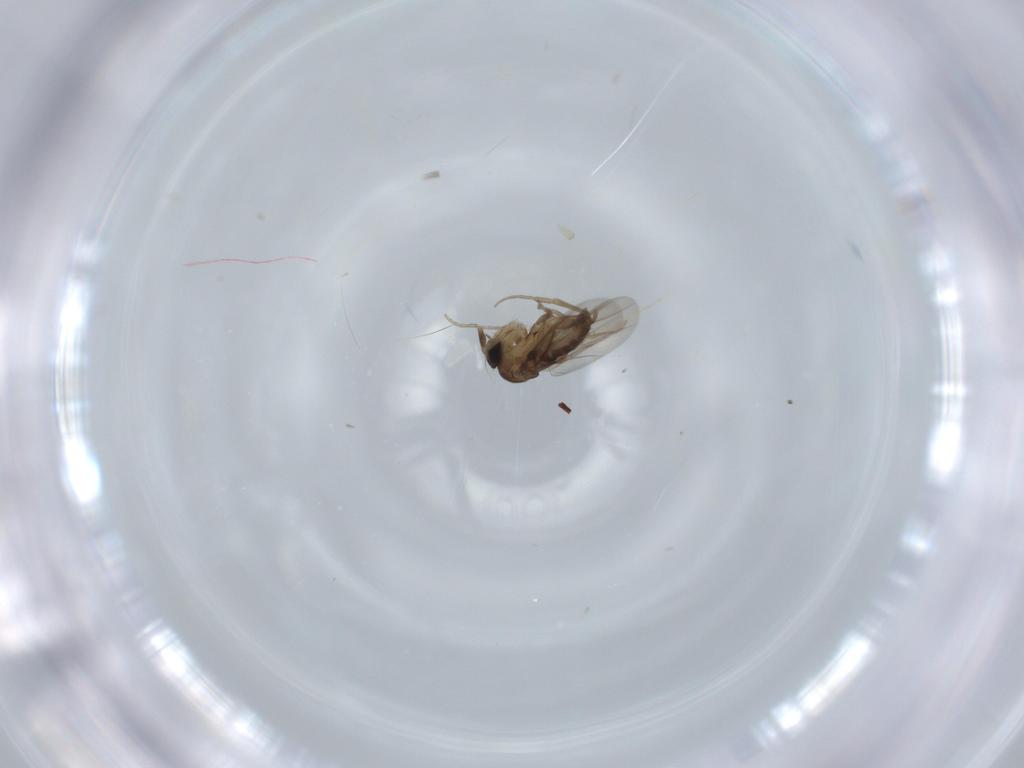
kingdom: Animalia
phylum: Arthropoda
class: Insecta
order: Diptera
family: Phoridae
